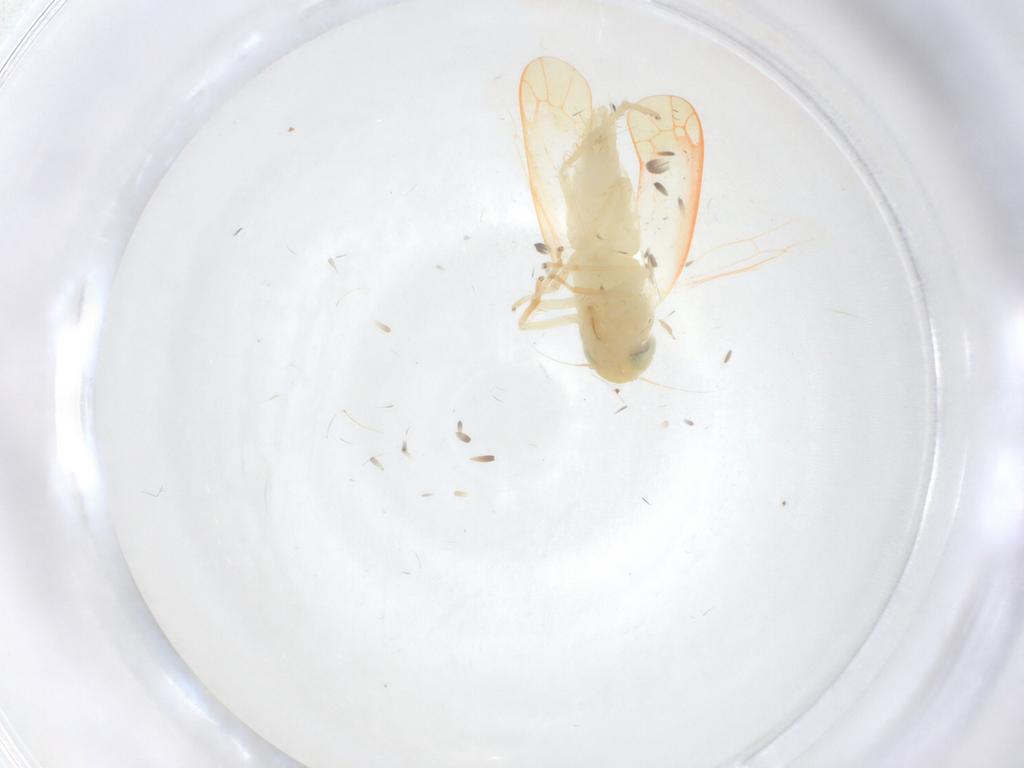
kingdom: Animalia
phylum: Arthropoda
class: Insecta
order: Hemiptera
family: Cicadellidae
